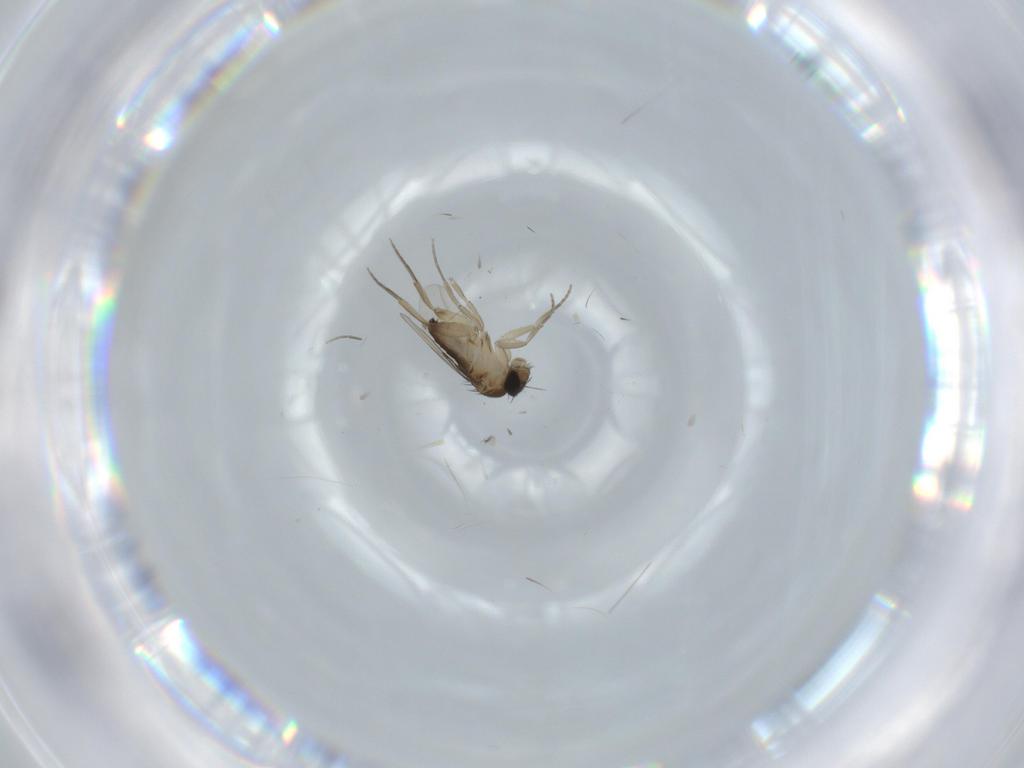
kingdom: Animalia
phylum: Arthropoda
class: Insecta
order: Diptera
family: Phoridae
